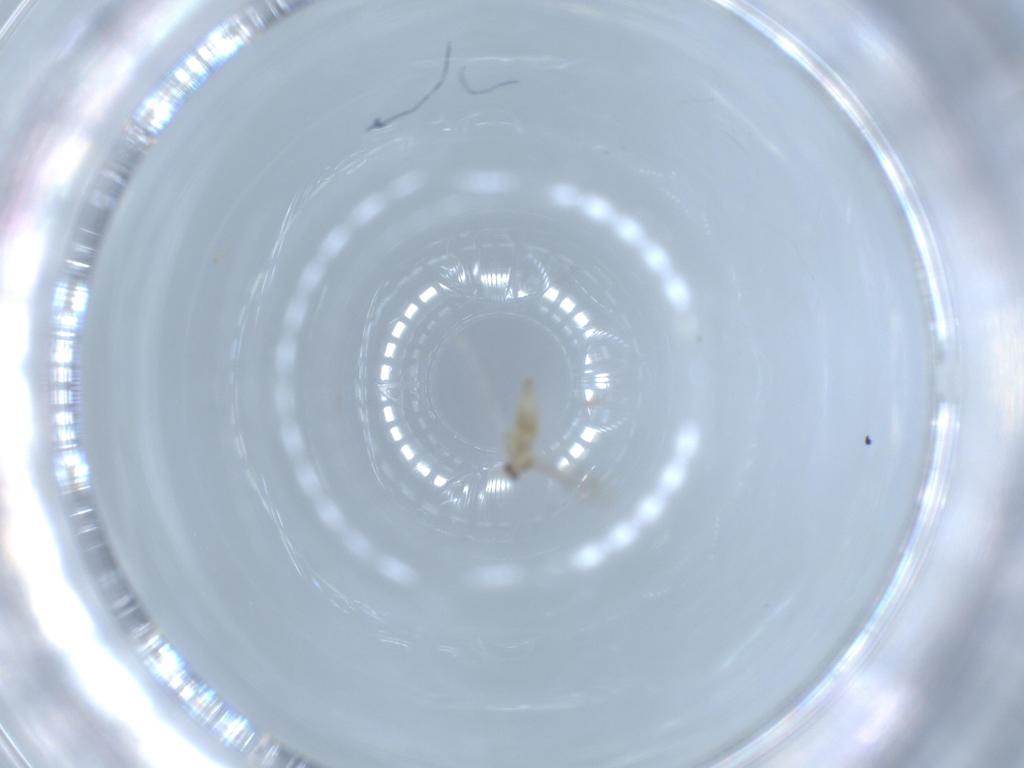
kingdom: Animalia
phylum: Arthropoda
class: Insecta
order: Diptera
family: Cecidomyiidae
